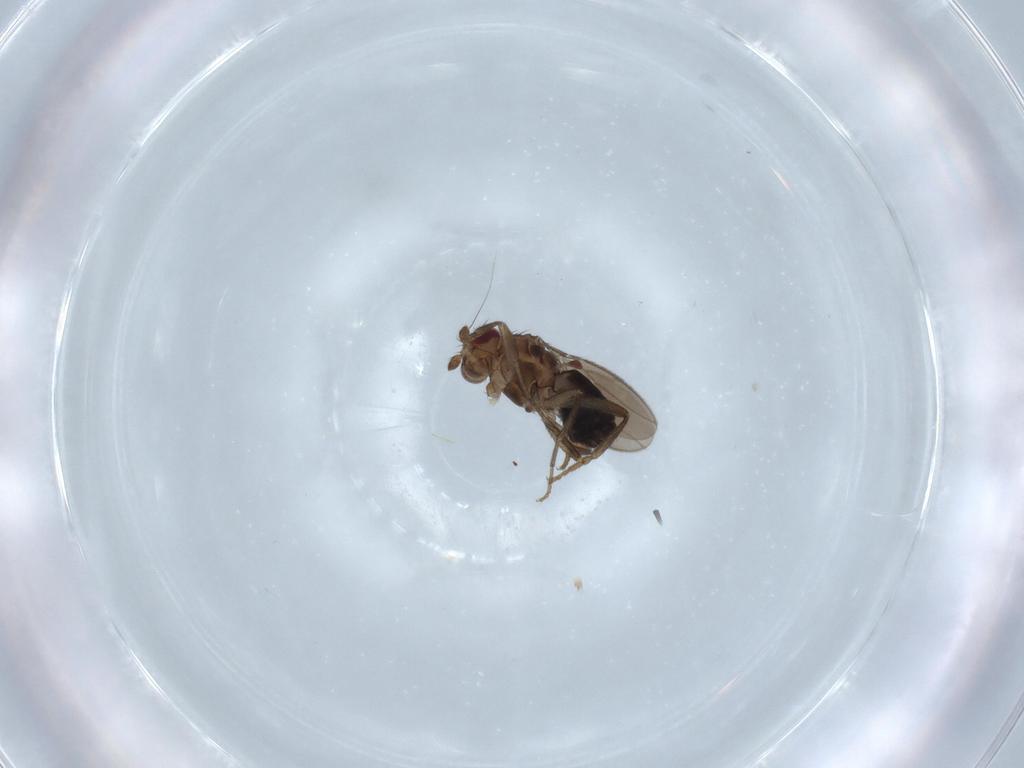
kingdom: Animalia
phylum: Arthropoda
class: Insecta
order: Diptera
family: Sphaeroceridae
